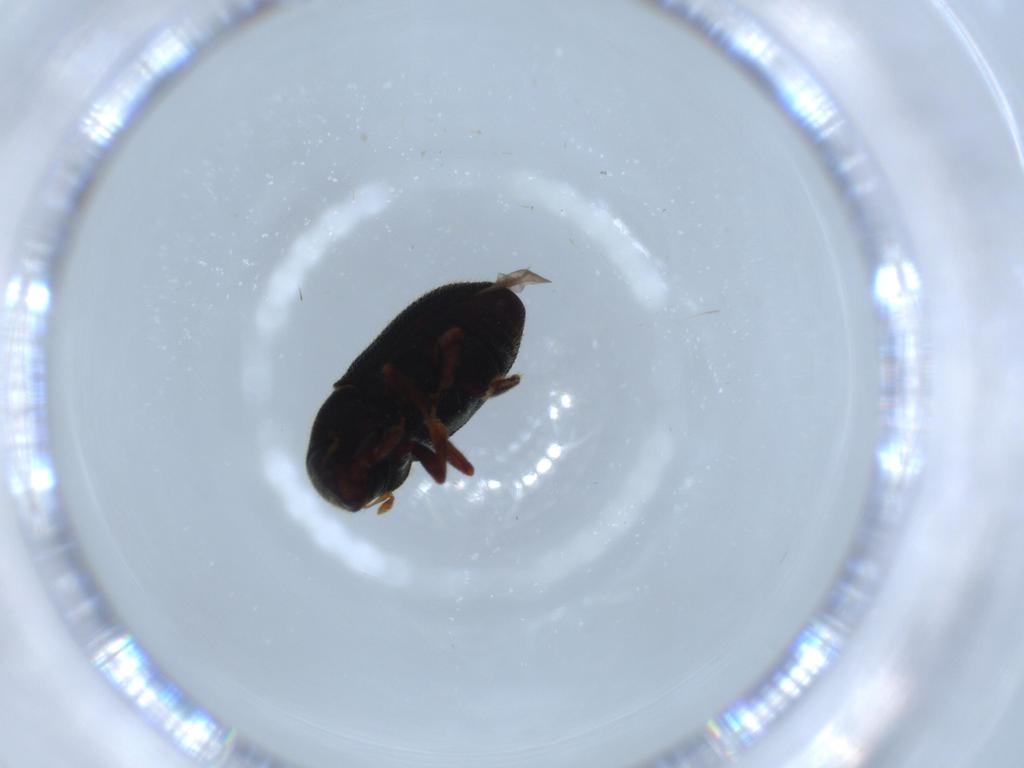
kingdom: Animalia
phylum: Arthropoda
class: Insecta
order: Coleoptera
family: Curculionidae
